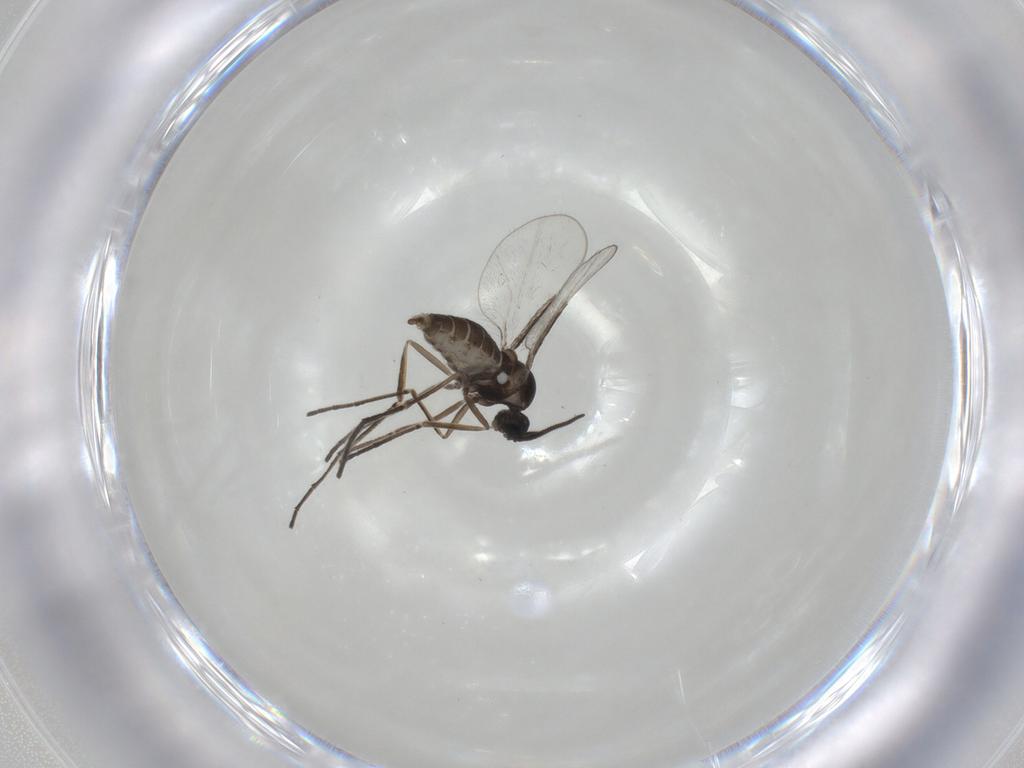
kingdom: Animalia
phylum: Arthropoda
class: Insecta
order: Diptera
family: Cecidomyiidae
